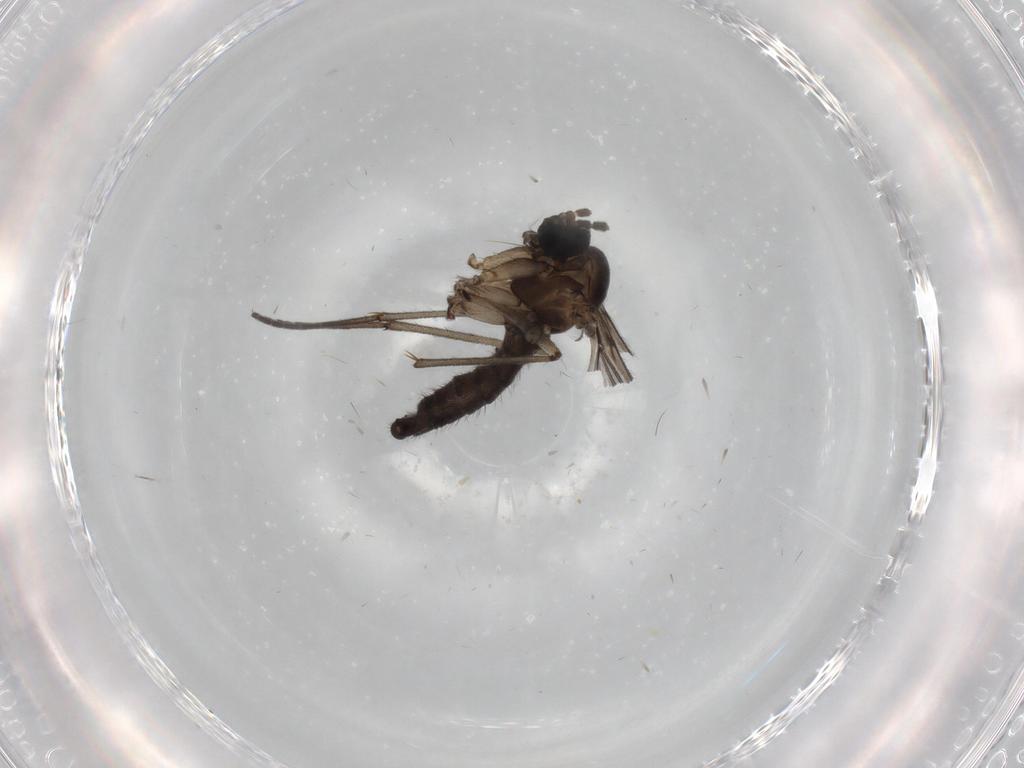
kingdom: Animalia
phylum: Arthropoda
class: Insecta
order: Diptera
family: Sciaridae
